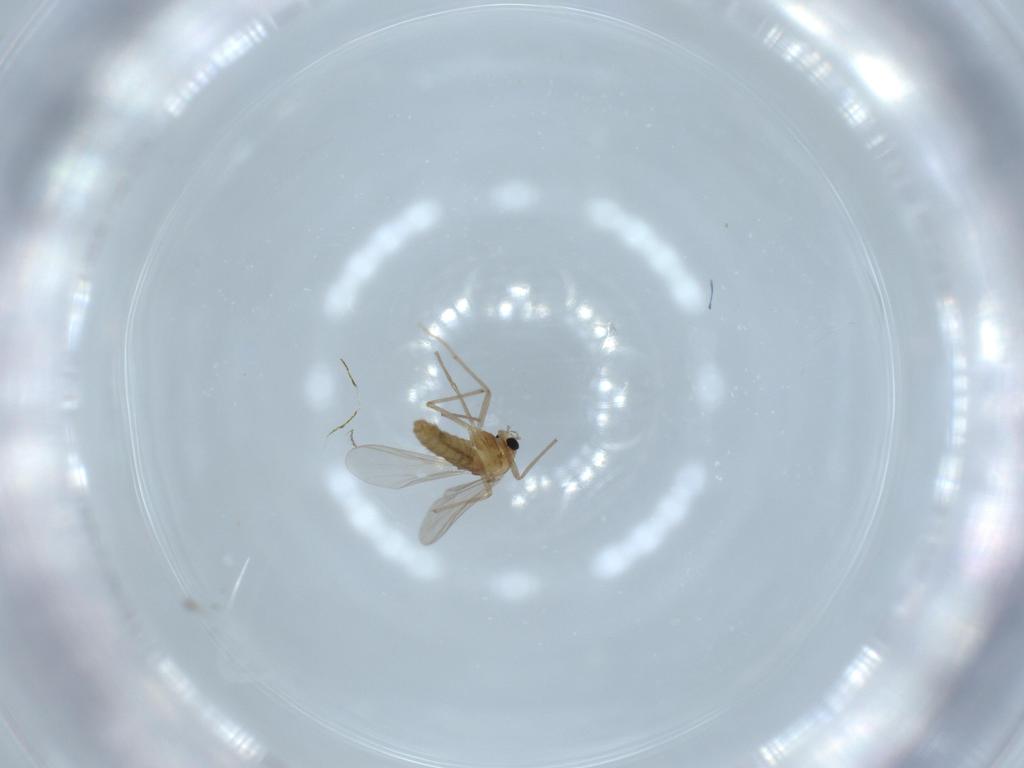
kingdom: Animalia
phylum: Arthropoda
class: Insecta
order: Diptera
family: Chironomidae
